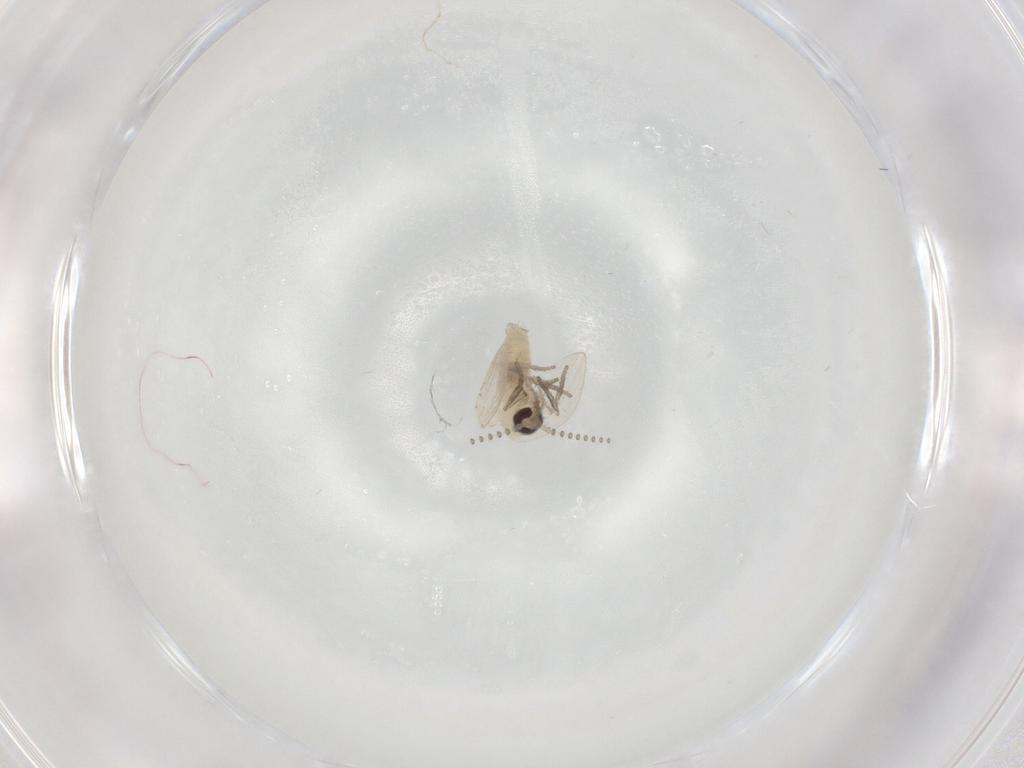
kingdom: Animalia
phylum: Arthropoda
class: Insecta
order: Diptera
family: Psychodidae
